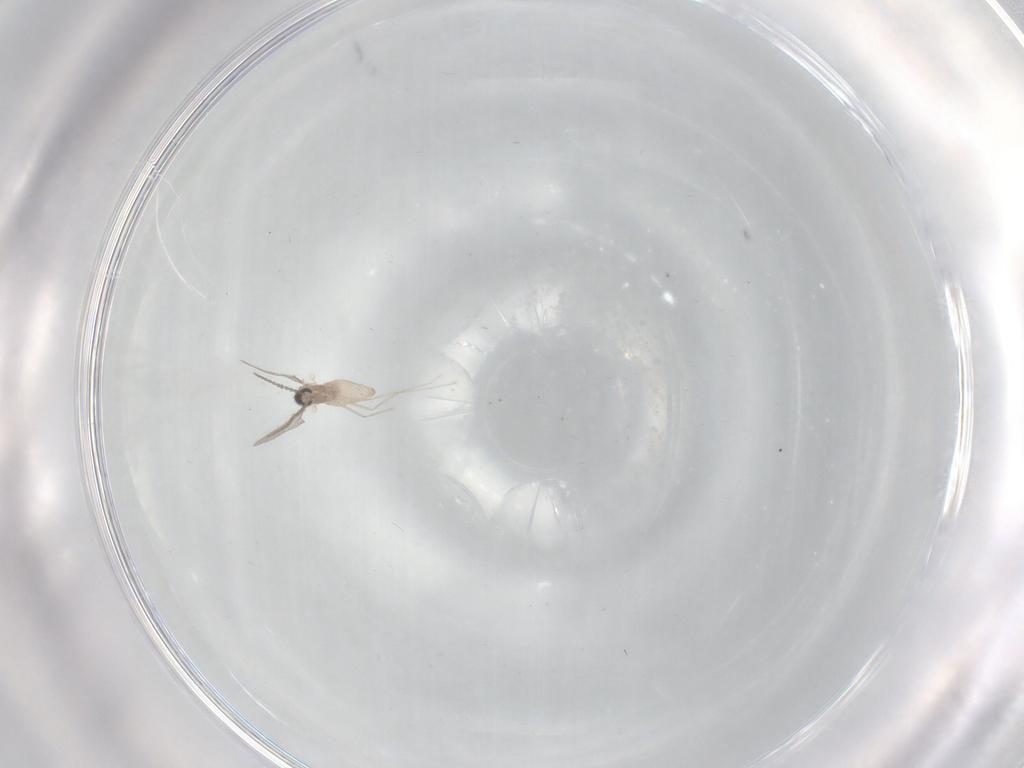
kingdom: Animalia
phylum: Arthropoda
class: Insecta
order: Diptera
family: Cecidomyiidae
